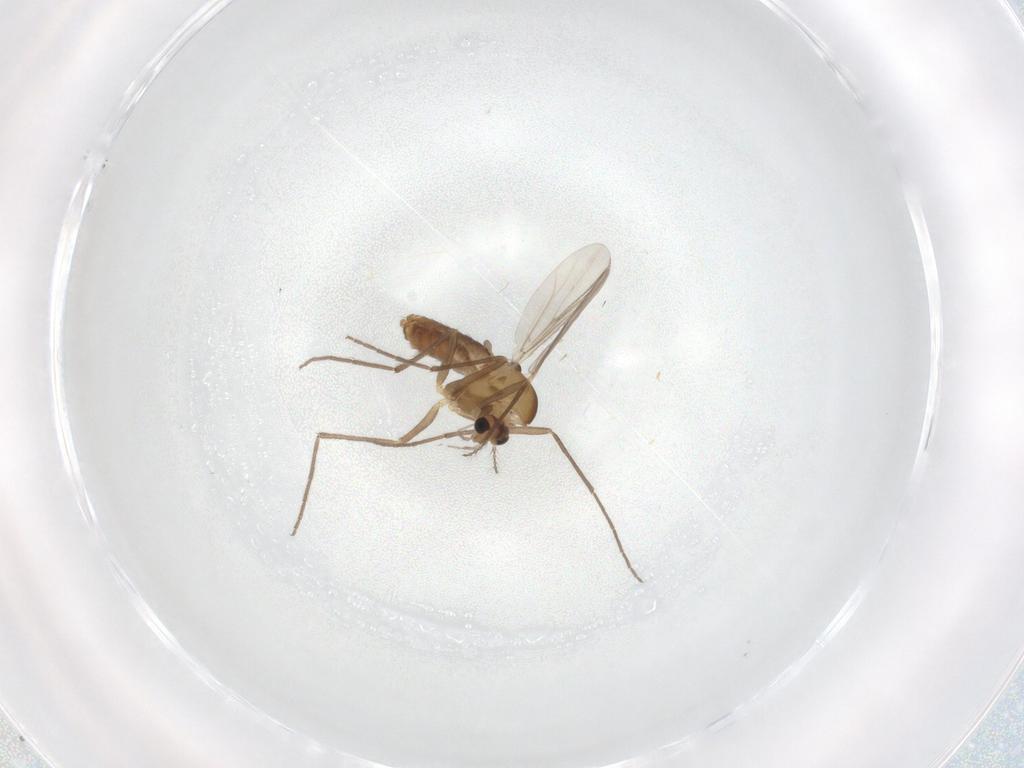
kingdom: Animalia
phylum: Arthropoda
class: Insecta
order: Diptera
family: Chironomidae
